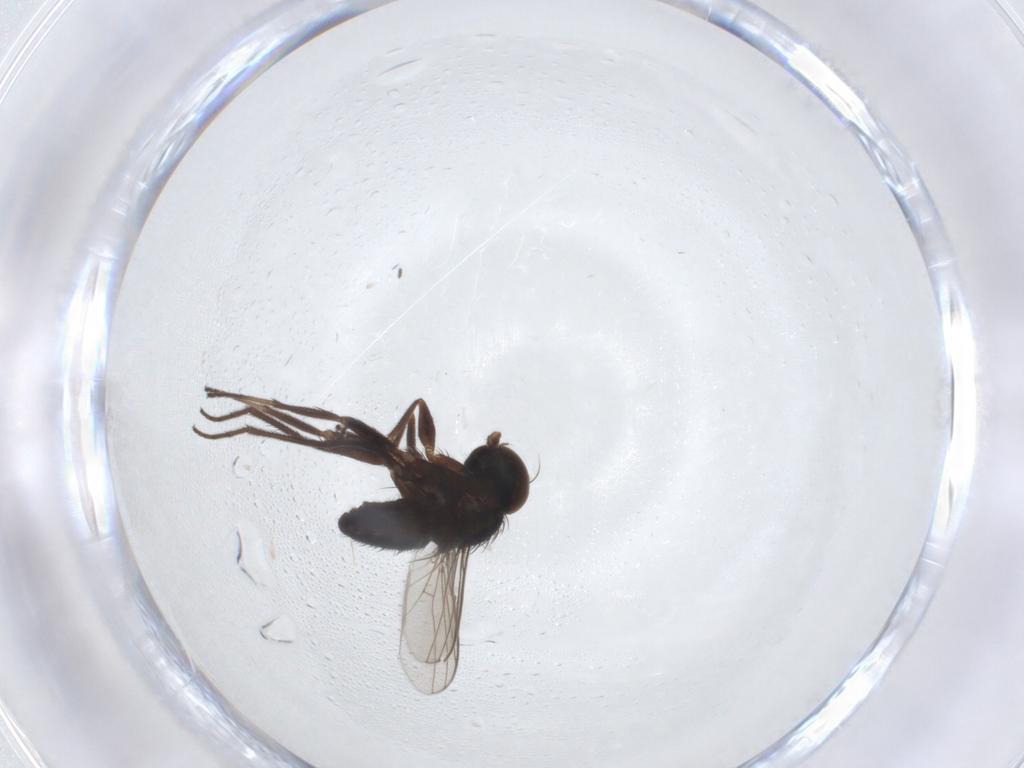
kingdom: Animalia
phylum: Arthropoda
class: Insecta
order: Diptera
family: Dolichopodidae
